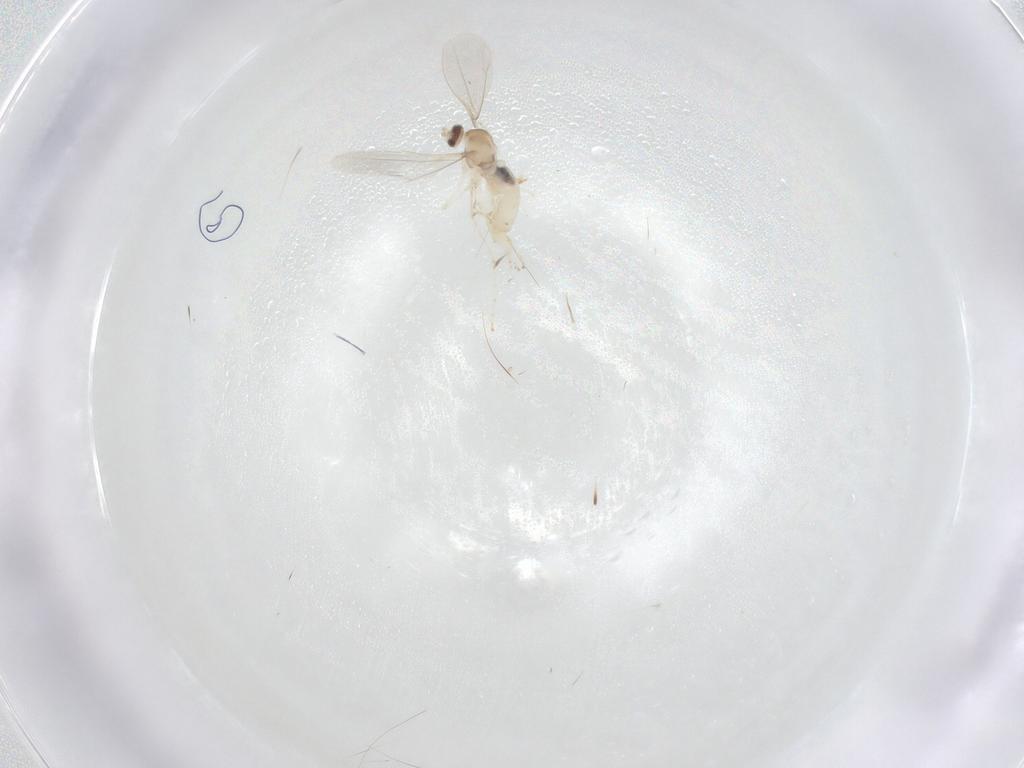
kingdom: Animalia
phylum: Arthropoda
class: Insecta
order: Diptera
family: Cecidomyiidae
